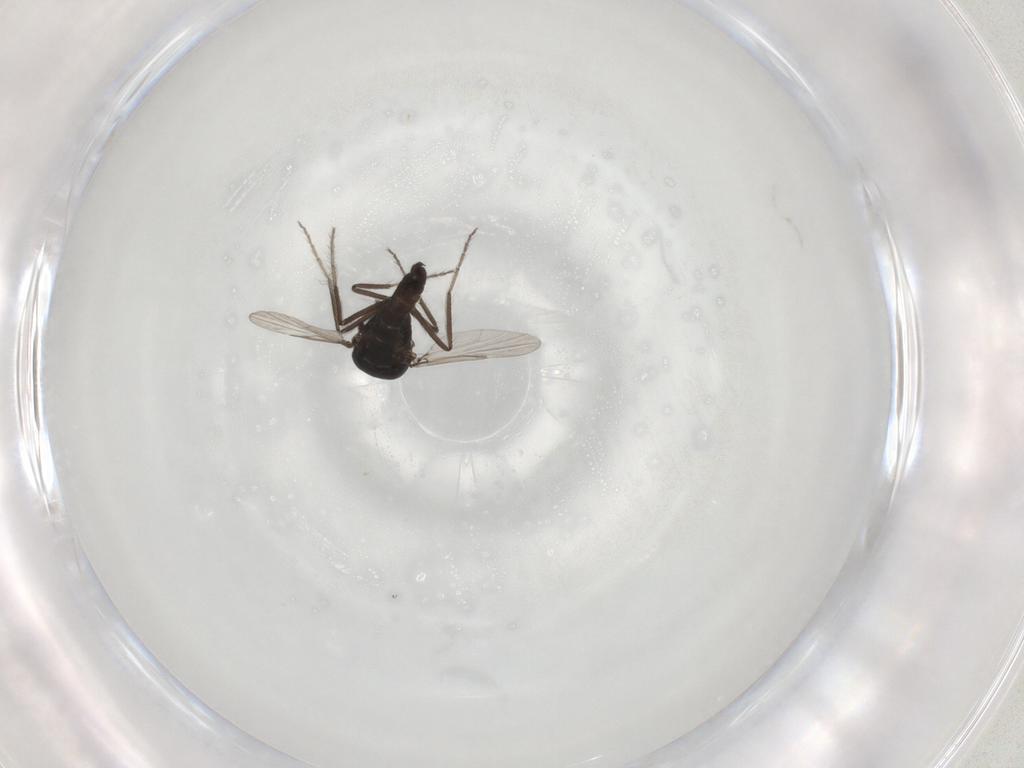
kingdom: Animalia
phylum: Arthropoda
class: Insecta
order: Diptera
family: Ceratopogonidae
